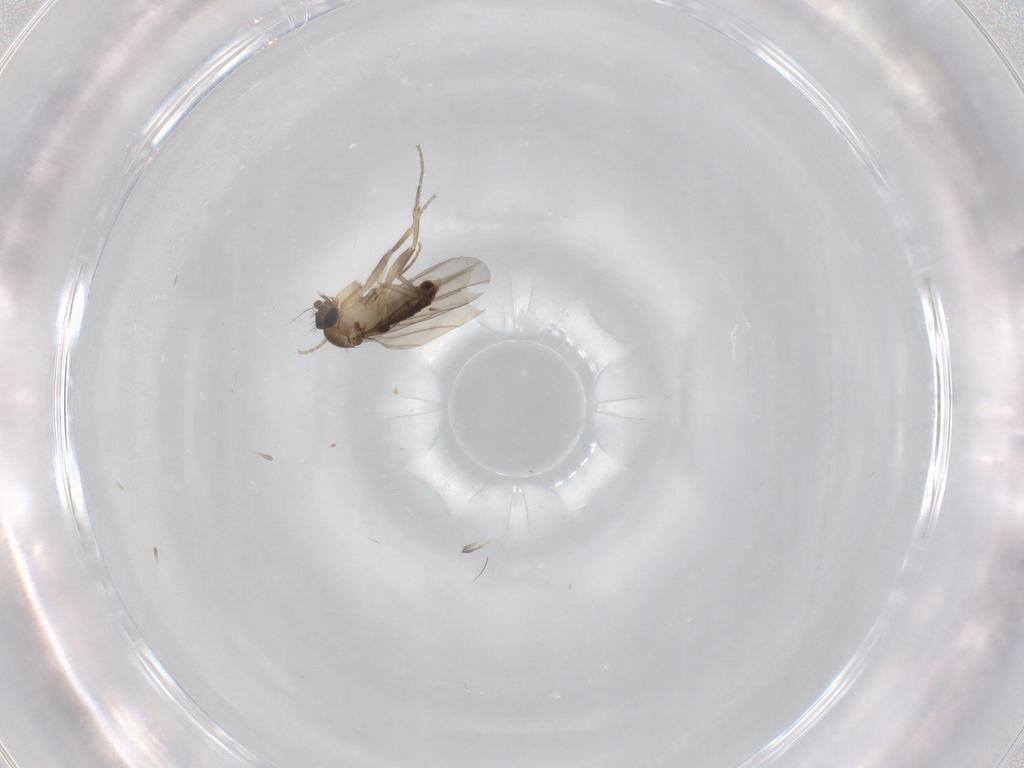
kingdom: Animalia
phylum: Arthropoda
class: Insecta
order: Diptera
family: Phoridae
